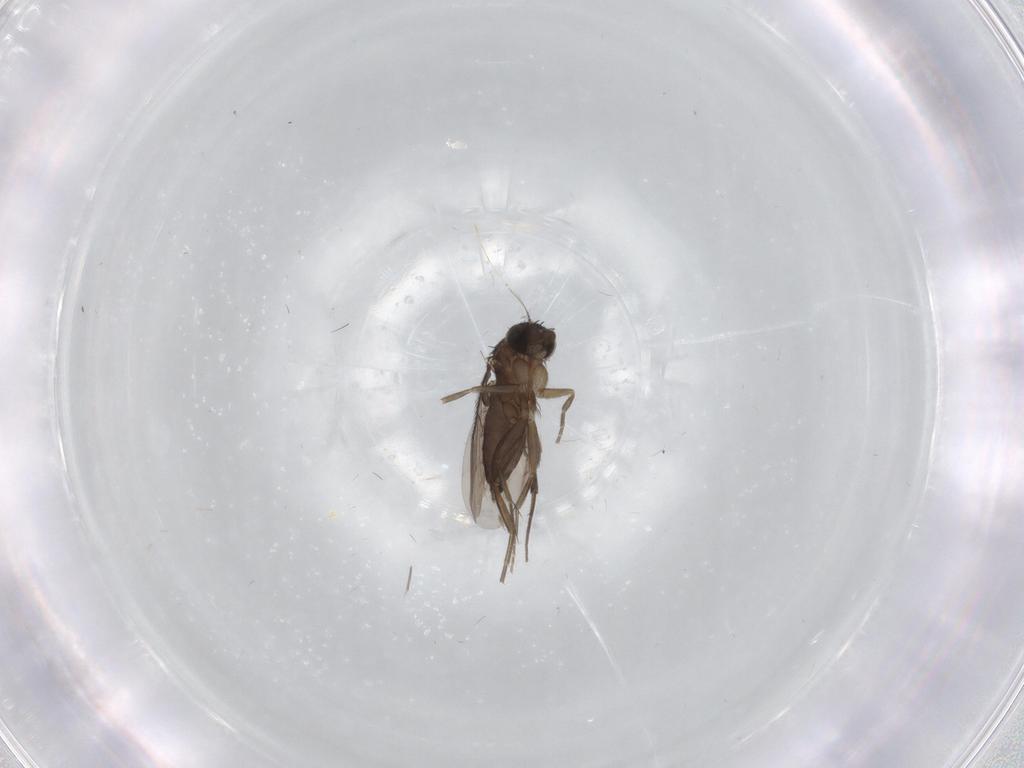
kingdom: Animalia
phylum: Arthropoda
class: Insecta
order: Diptera
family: Phoridae
